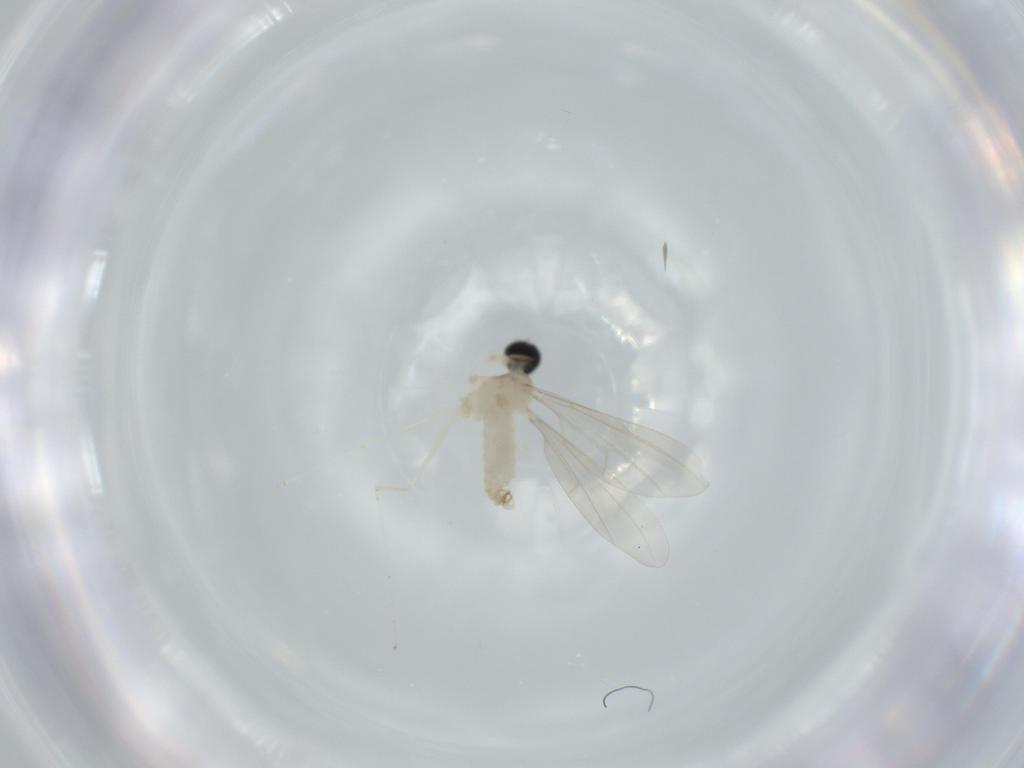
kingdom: Animalia
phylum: Arthropoda
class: Insecta
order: Diptera
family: Cecidomyiidae
